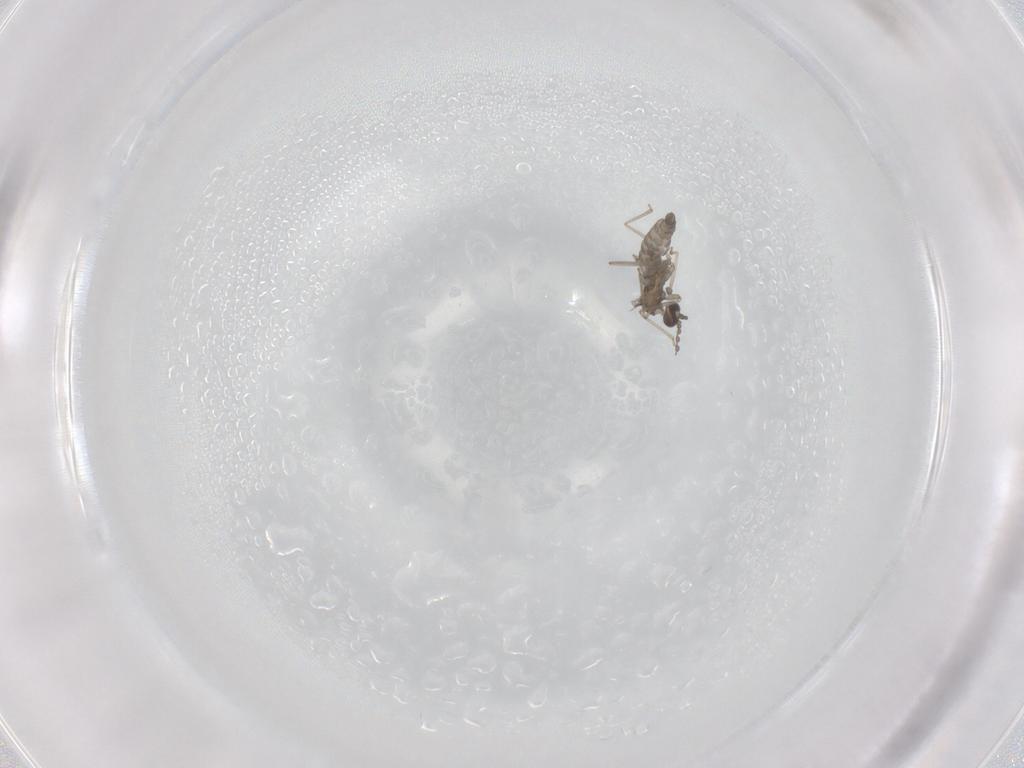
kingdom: Animalia
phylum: Arthropoda
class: Insecta
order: Diptera
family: Cecidomyiidae
